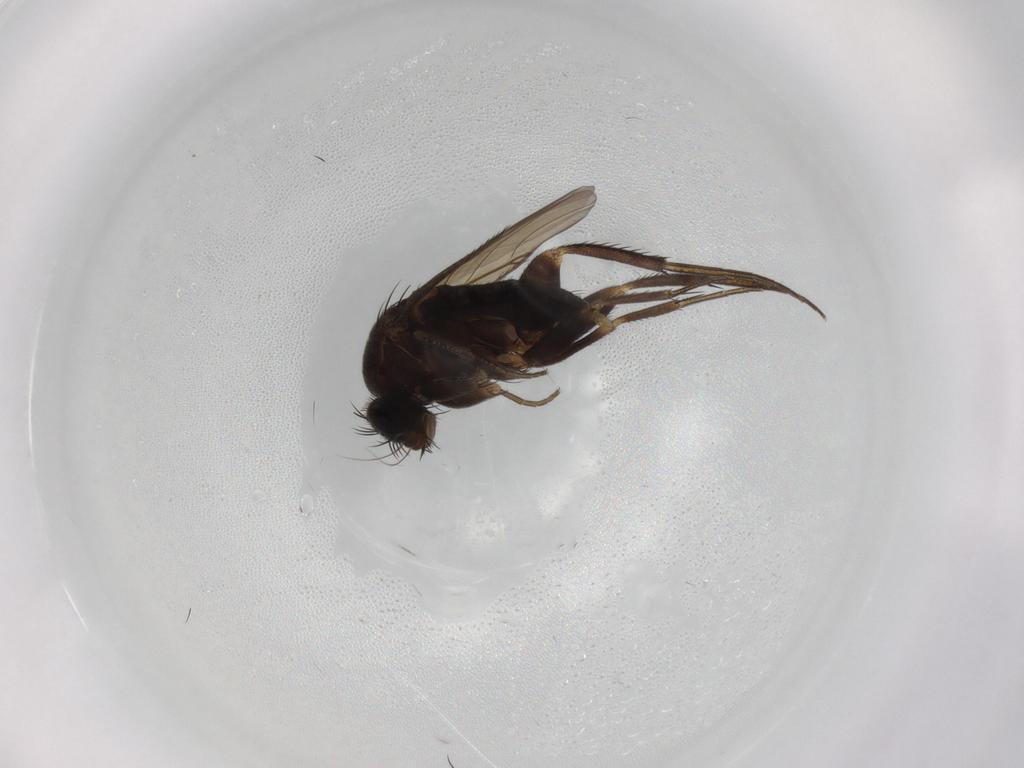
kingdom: Animalia
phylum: Arthropoda
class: Insecta
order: Diptera
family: Phoridae
